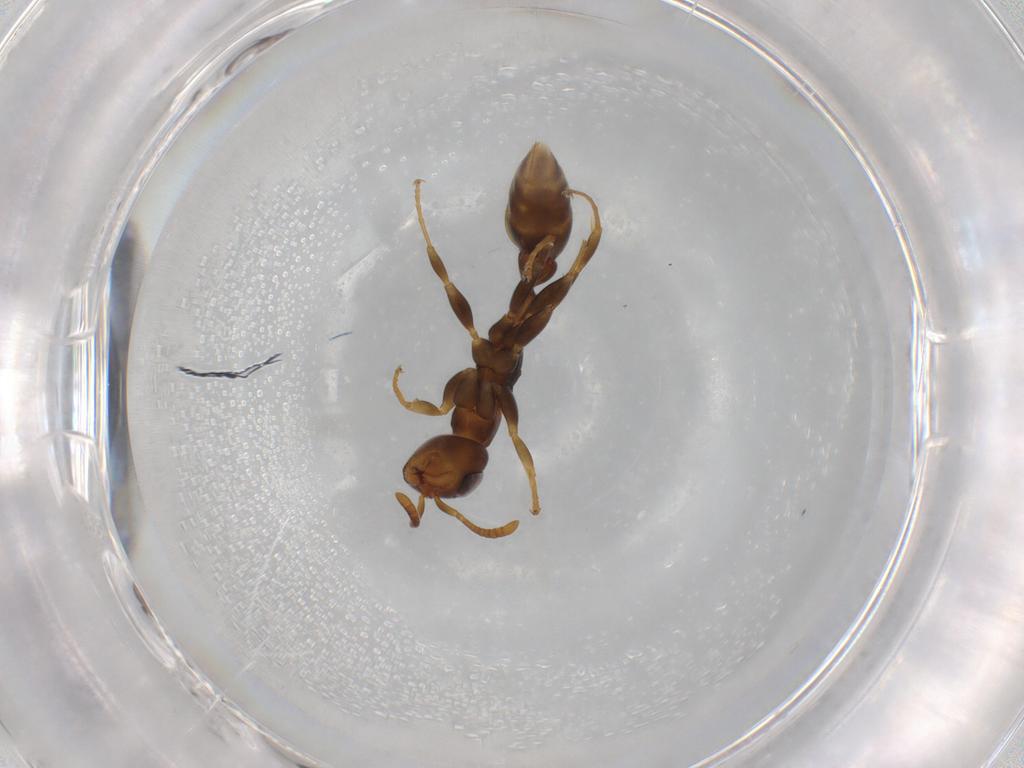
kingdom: Animalia
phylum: Arthropoda
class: Insecta
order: Hymenoptera
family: Formicidae
